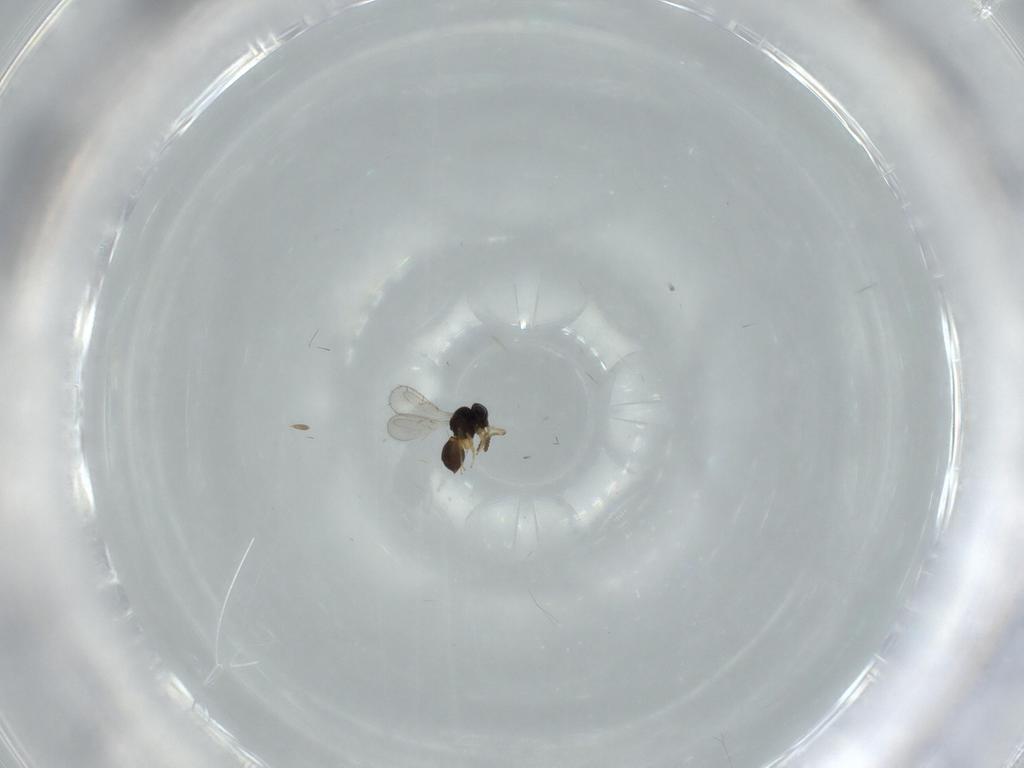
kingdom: Animalia
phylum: Arthropoda
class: Insecta
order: Hymenoptera
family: Scelionidae
